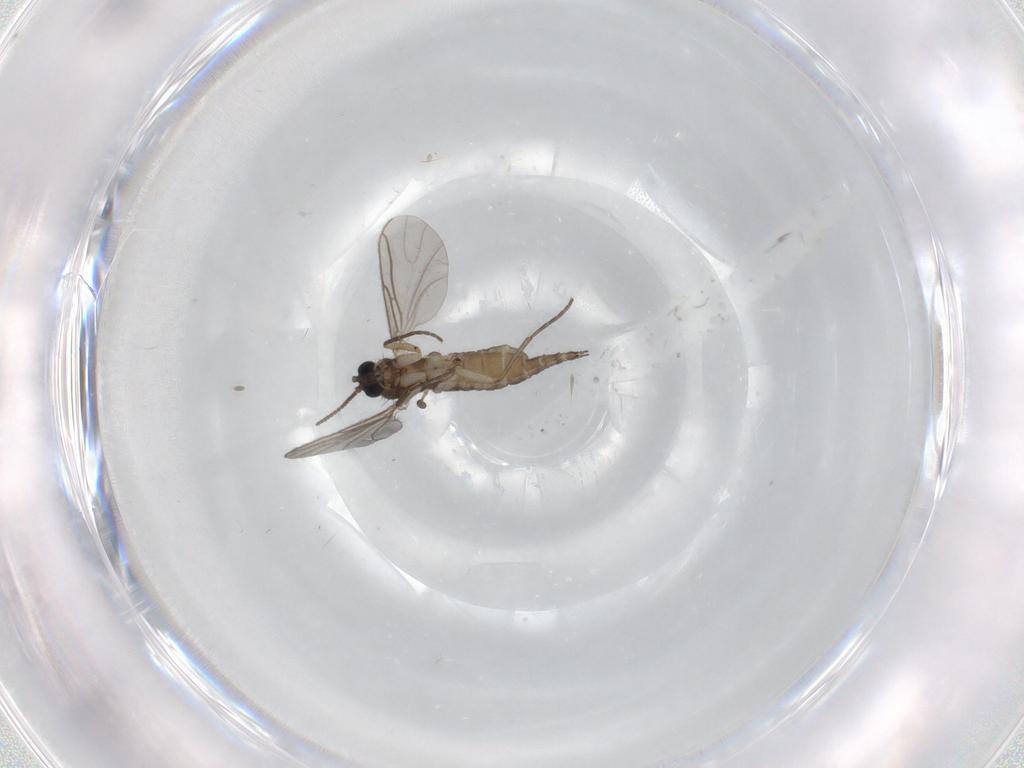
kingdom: Animalia
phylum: Arthropoda
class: Insecta
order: Diptera
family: Sciaridae
